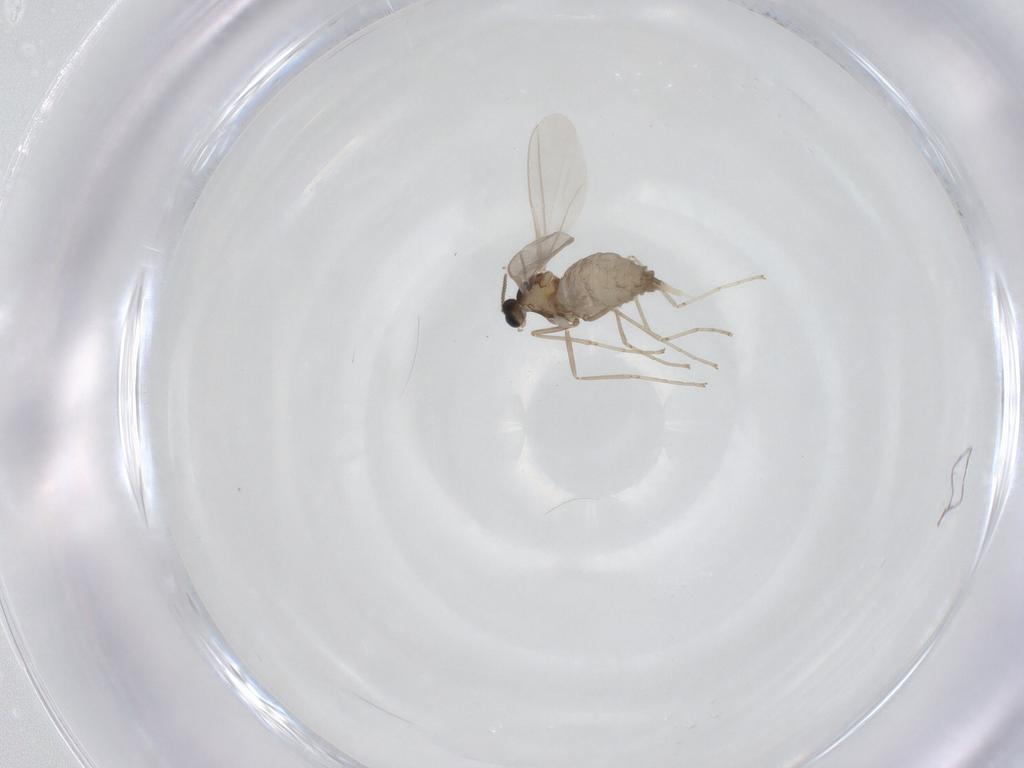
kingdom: Animalia
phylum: Arthropoda
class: Insecta
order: Diptera
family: Cecidomyiidae
